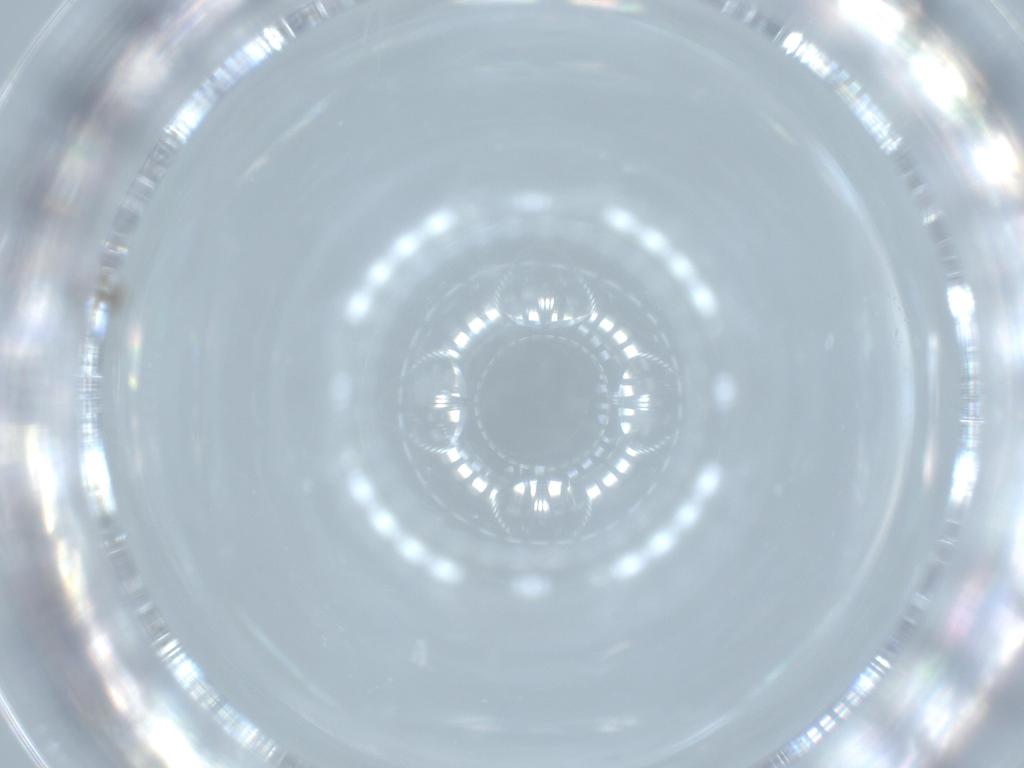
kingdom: Animalia
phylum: Arthropoda
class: Insecta
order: Hymenoptera
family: Mymaridae
